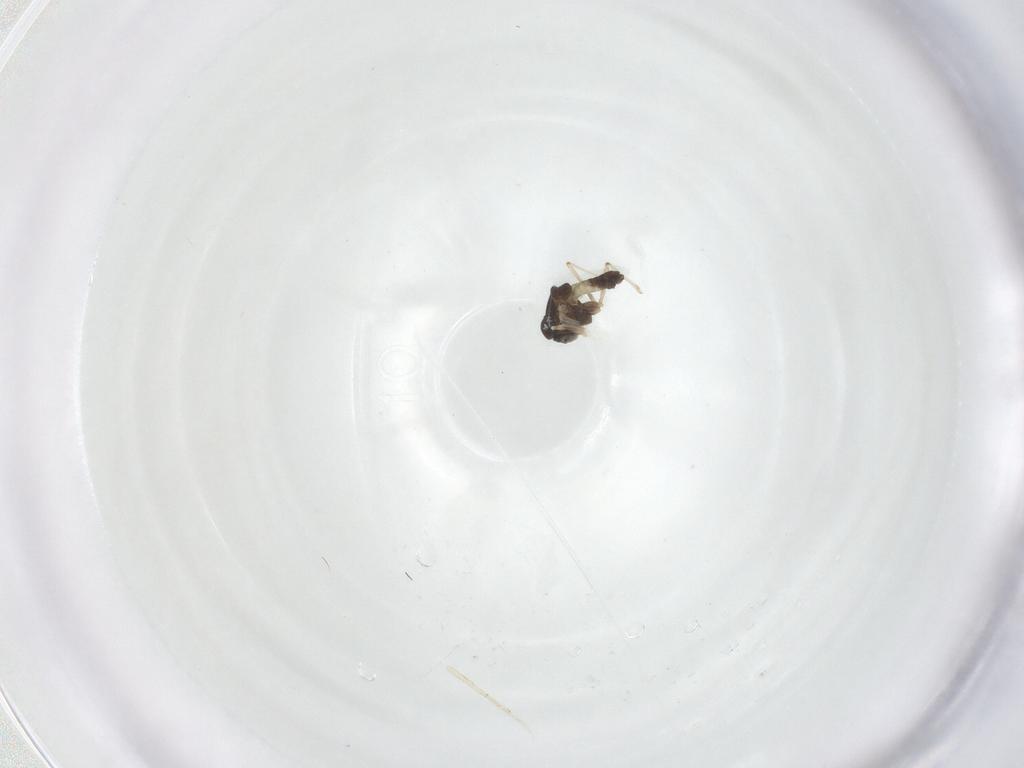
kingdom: Animalia
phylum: Arthropoda
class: Insecta
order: Diptera
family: Chironomidae
